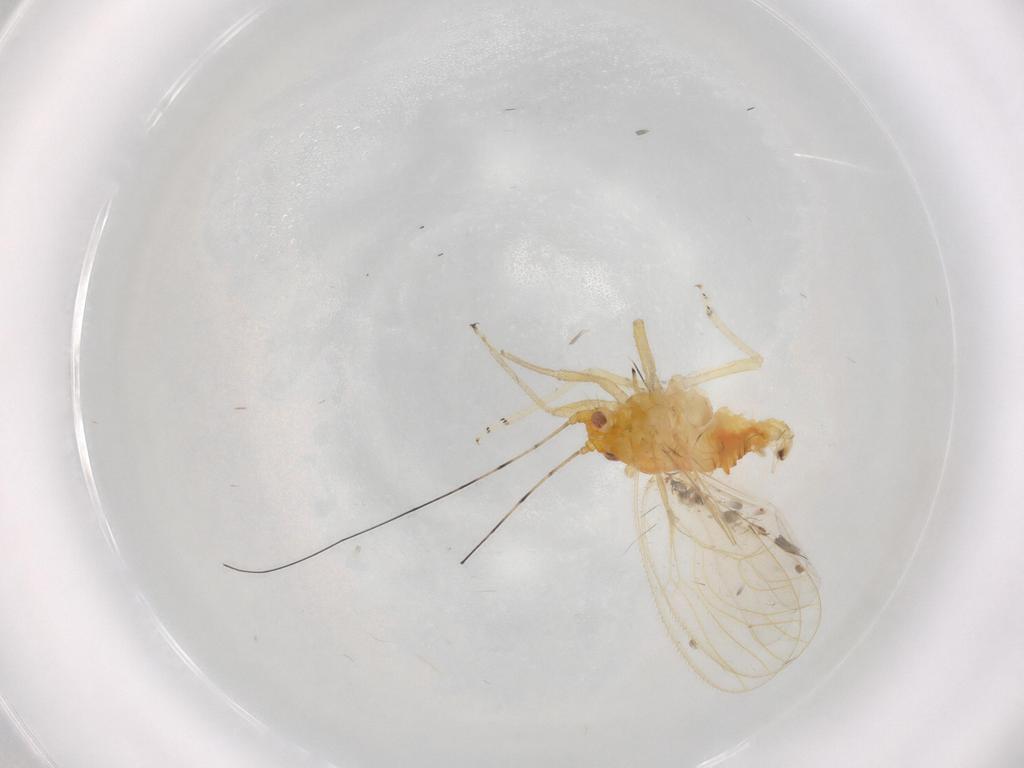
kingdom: Animalia
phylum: Arthropoda
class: Insecta
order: Hemiptera
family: Psyllidae
